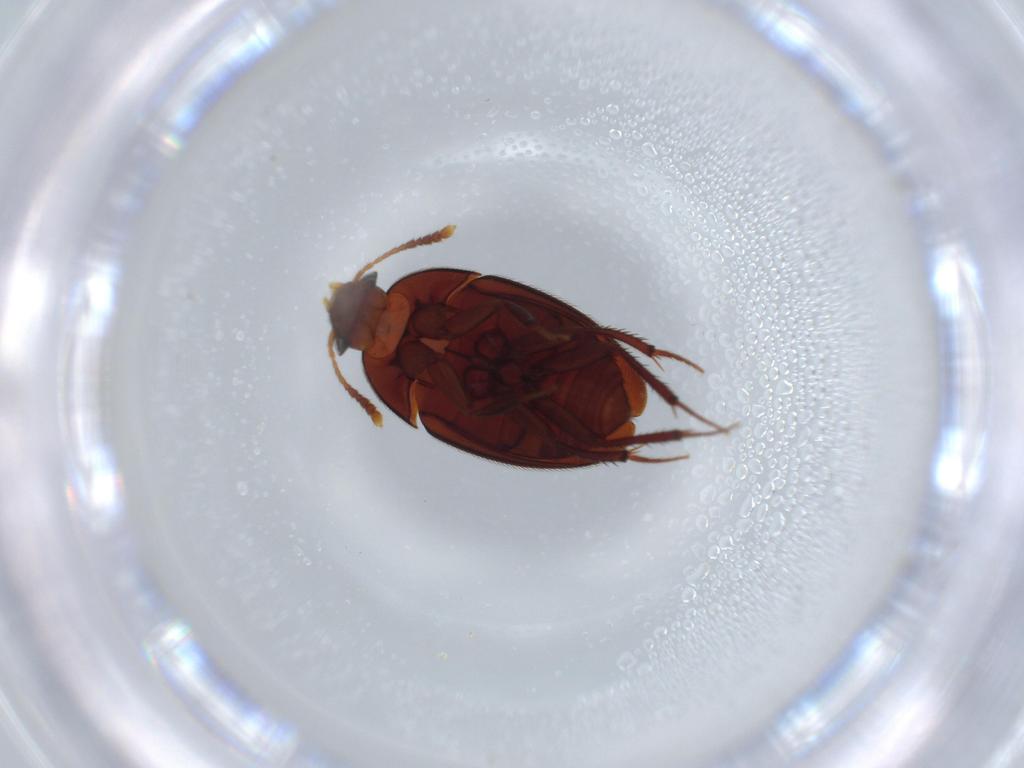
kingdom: Animalia
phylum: Arthropoda
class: Insecta
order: Coleoptera
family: Leiodidae
